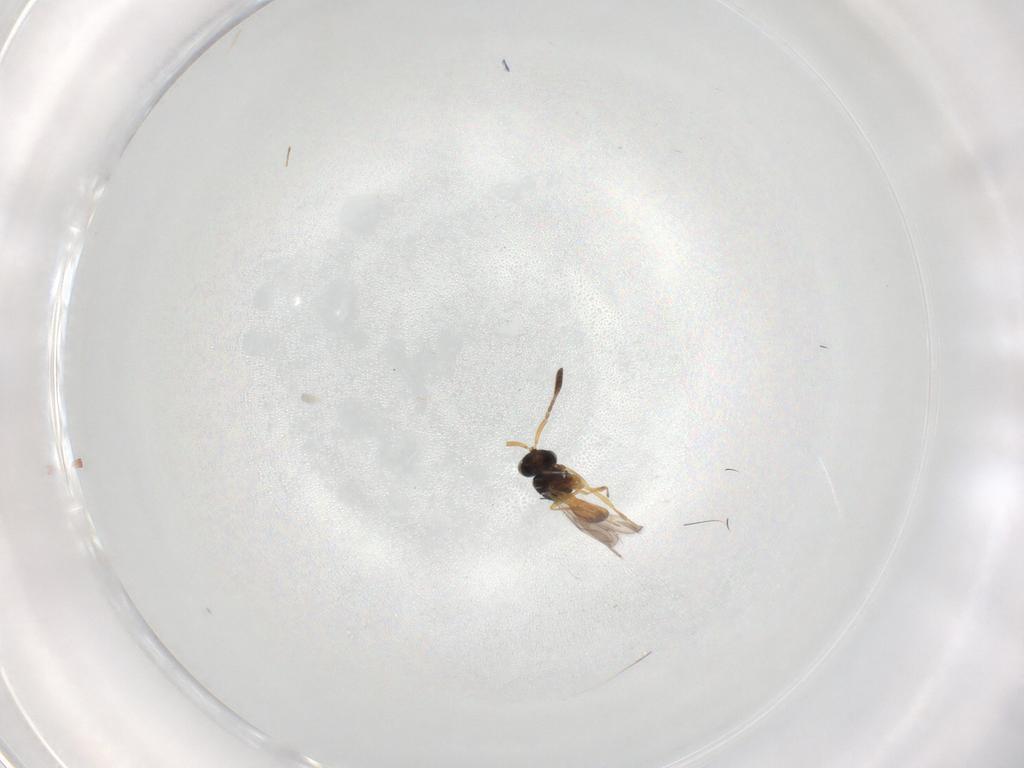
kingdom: Animalia
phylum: Arthropoda
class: Insecta
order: Hymenoptera
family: Scelionidae
